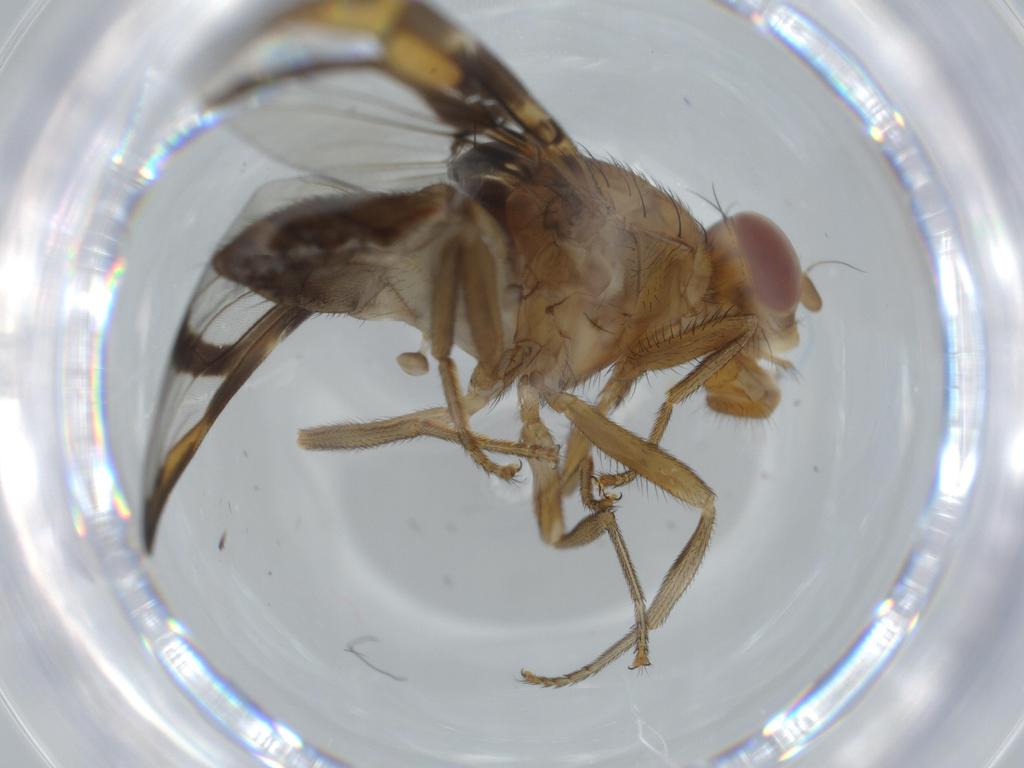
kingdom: Animalia
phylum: Arthropoda
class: Insecta
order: Diptera
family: Ulidiidae
